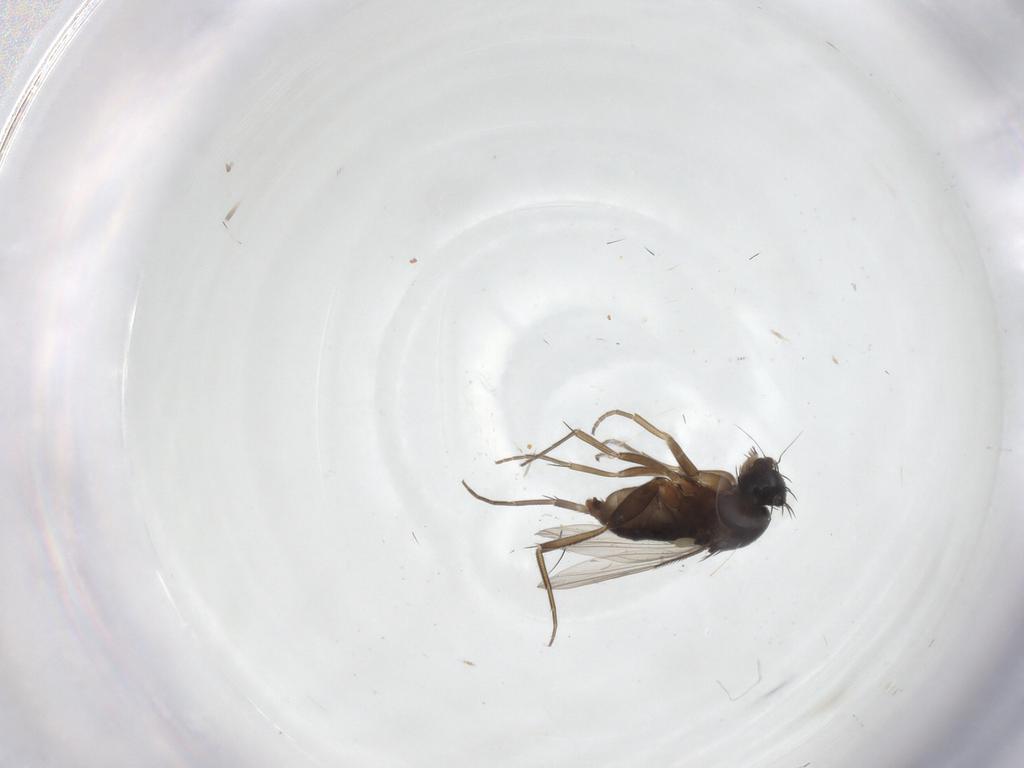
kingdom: Animalia
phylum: Arthropoda
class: Insecta
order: Diptera
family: Phoridae
